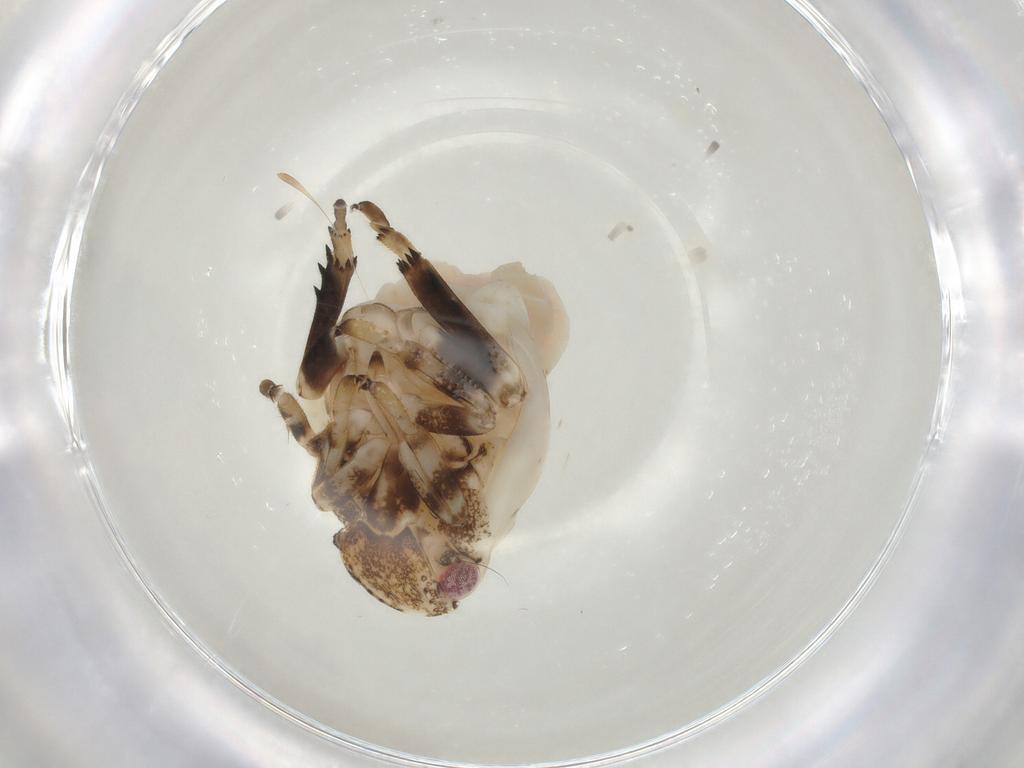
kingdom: Animalia
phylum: Arthropoda
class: Insecta
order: Hemiptera
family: Ricaniidae
